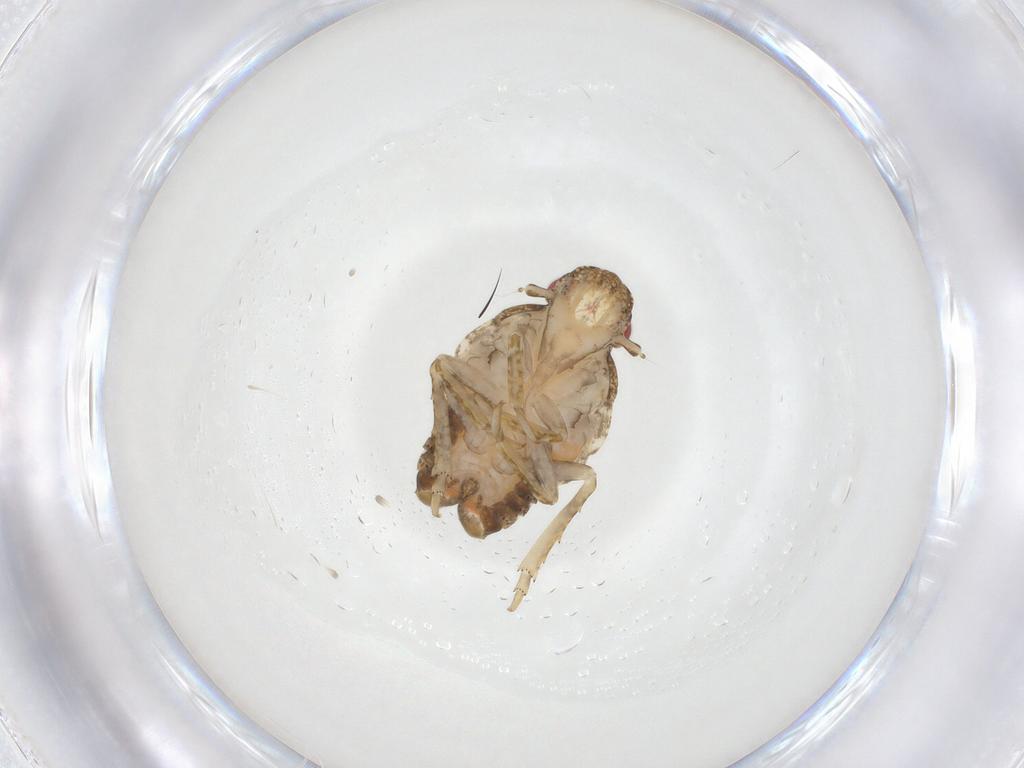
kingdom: Animalia
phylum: Arthropoda
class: Insecta
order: Hemiptera
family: Flatidae
